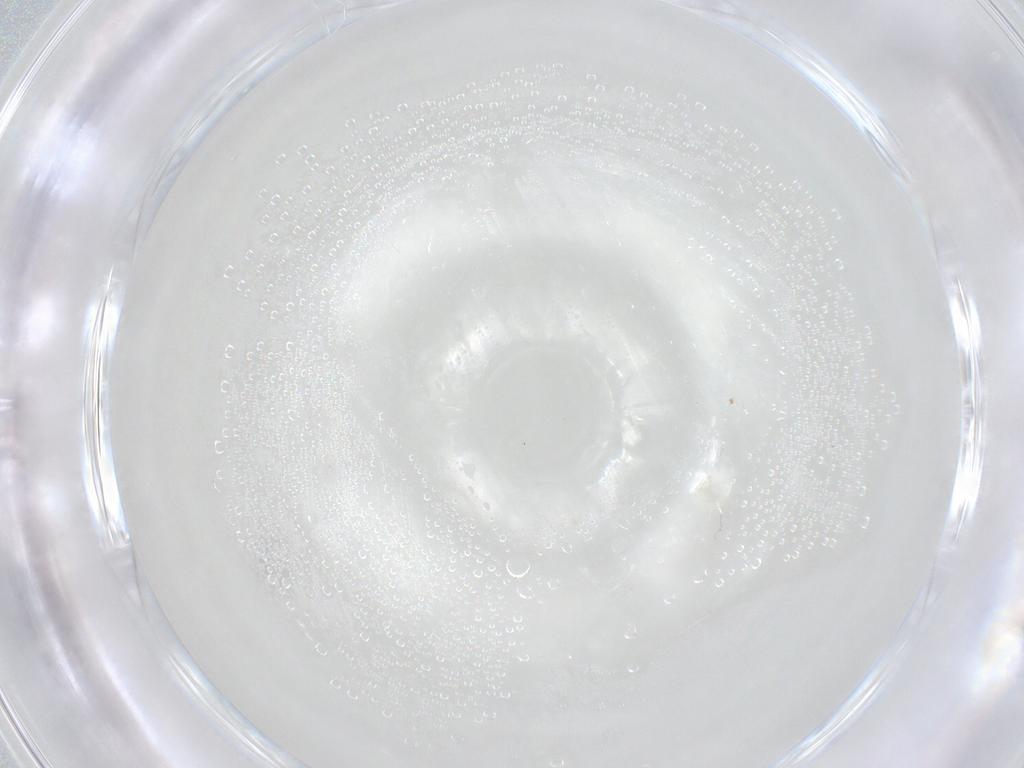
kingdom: Animalia
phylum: Arthropoda
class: Insecta
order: Neuroptera
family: Mantispidae
